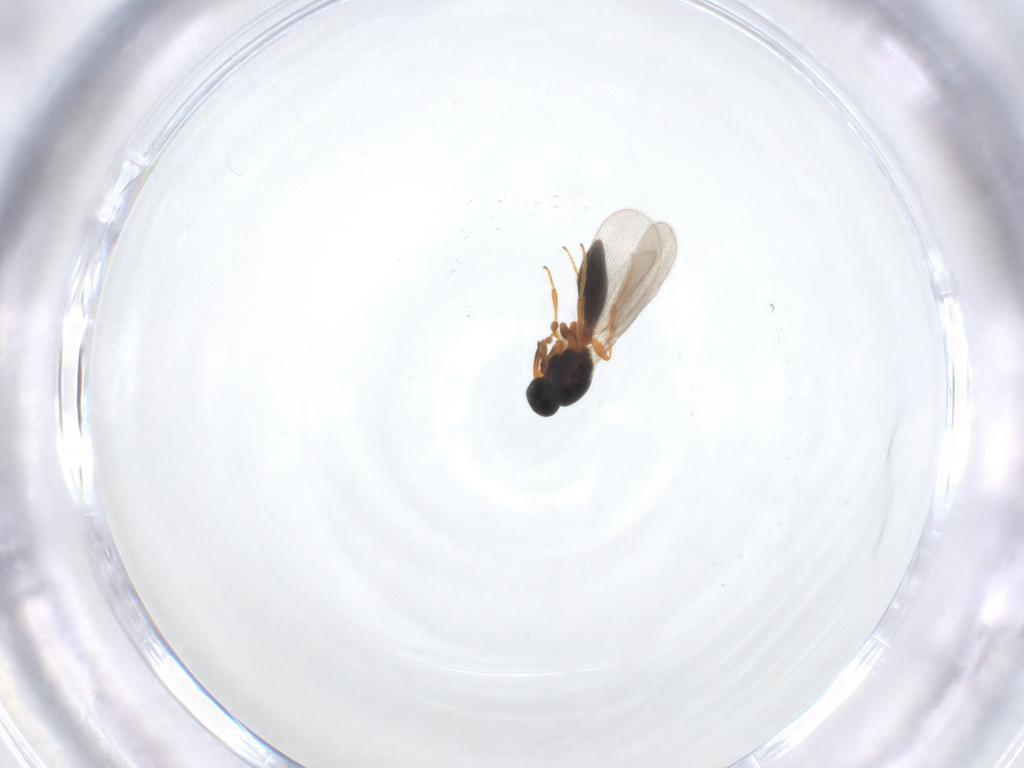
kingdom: Animalia
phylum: Arthropoda
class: Insecta
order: Hymenoptera
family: Platygastridae
